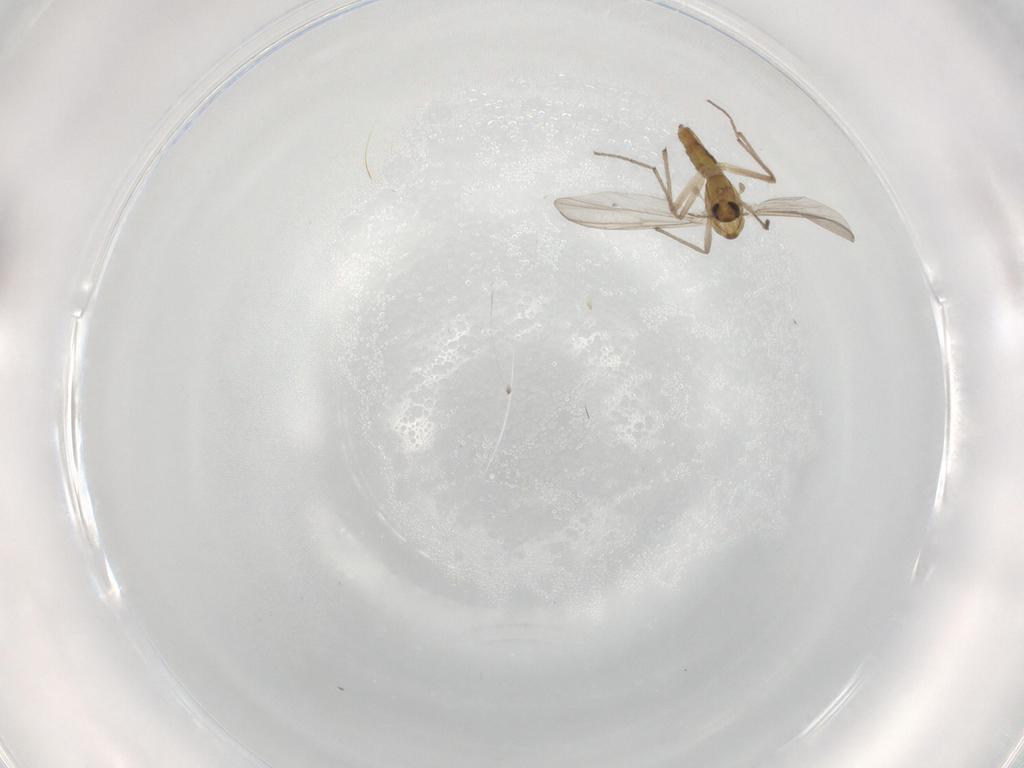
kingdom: Animalia
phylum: Arthropoda
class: Insecta
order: Diptera
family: Chironomidae
